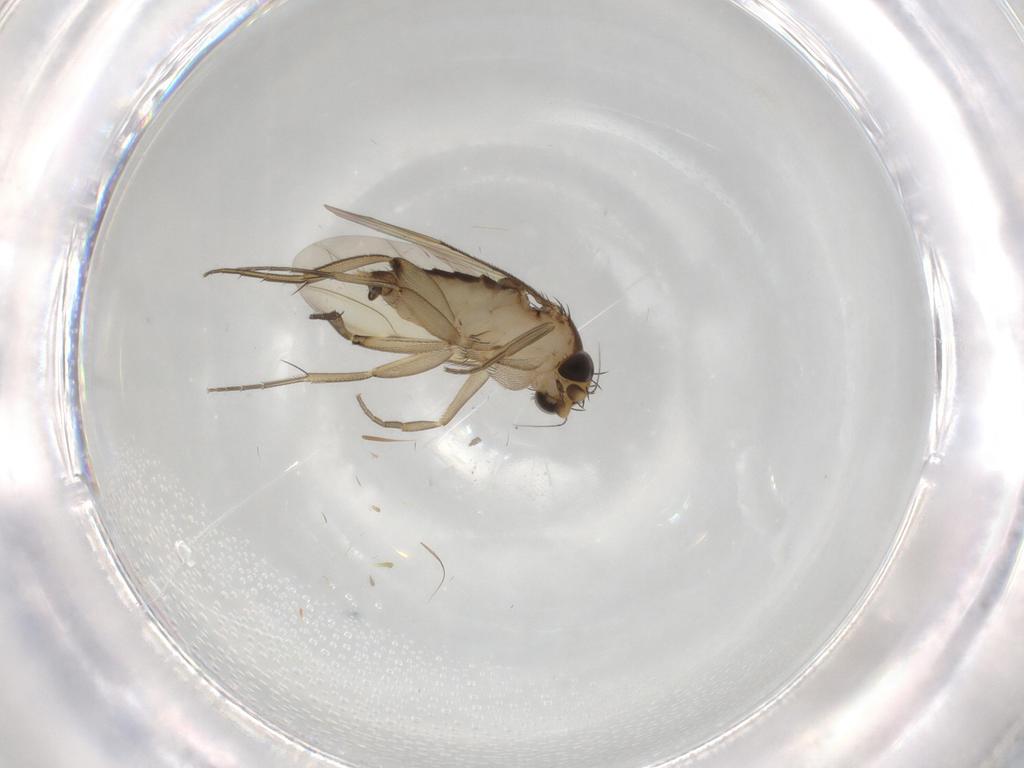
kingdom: Animalia
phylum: Arthropoda
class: Insecta
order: Diptera
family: Phoridae
